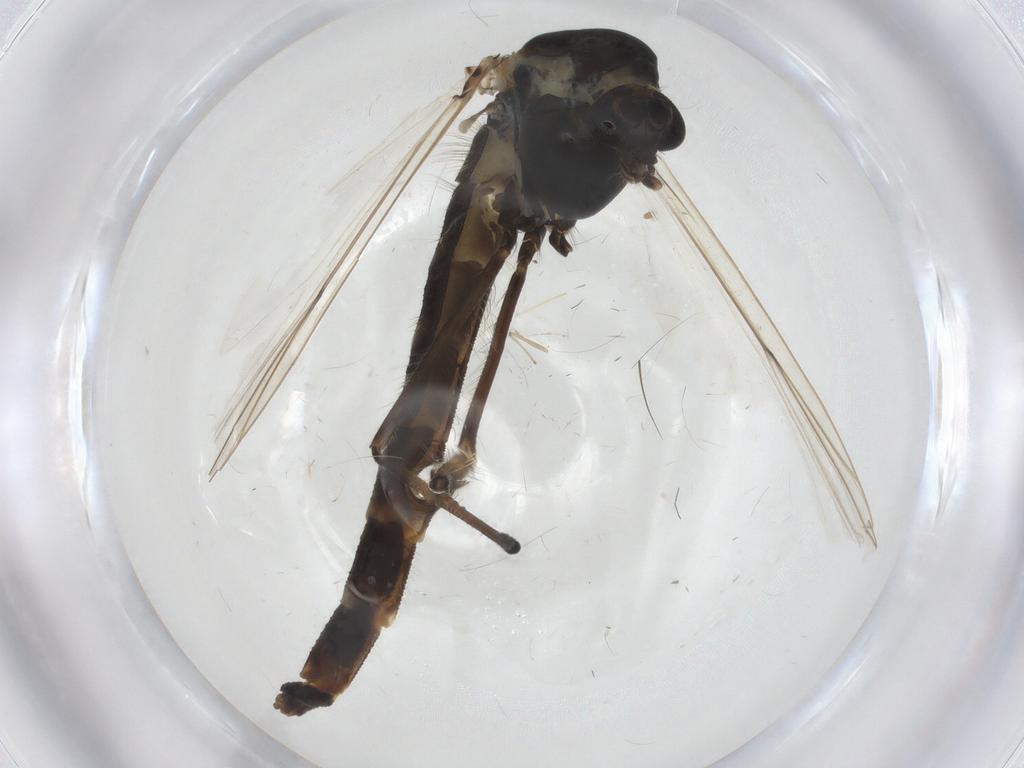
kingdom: Animalia
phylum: Arthropoda
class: Insecta
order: Diptera
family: Chironomidae
